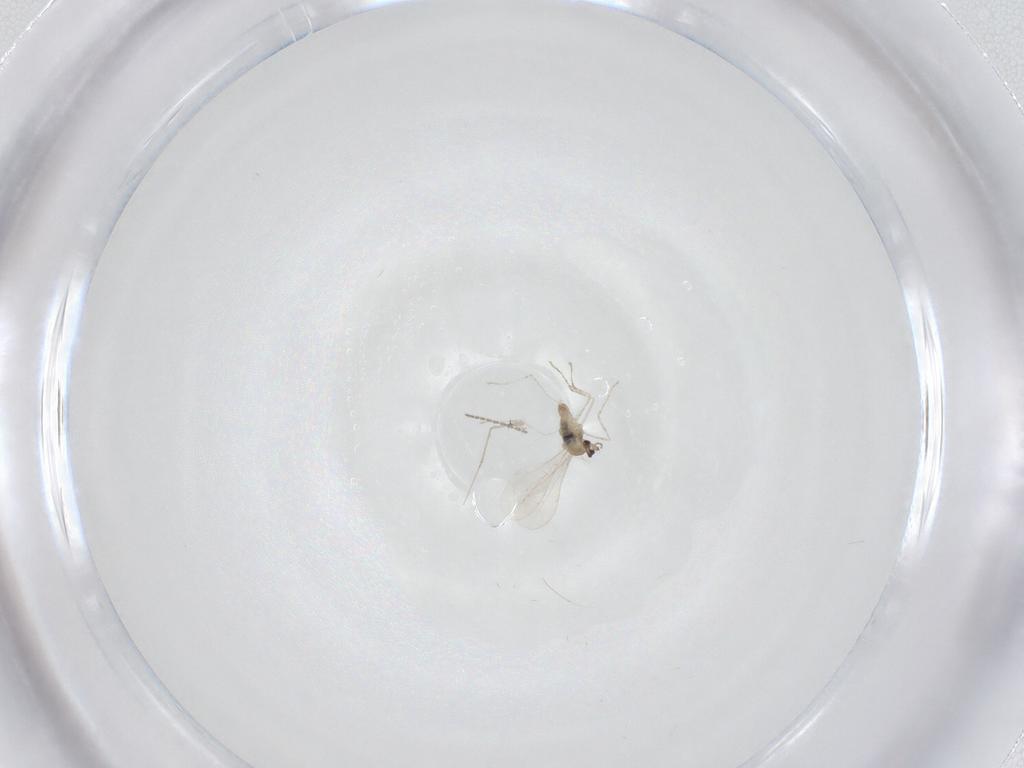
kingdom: Animalia
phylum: Arthropoda
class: Insecta
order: Diptera
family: Cecidomyiidae
